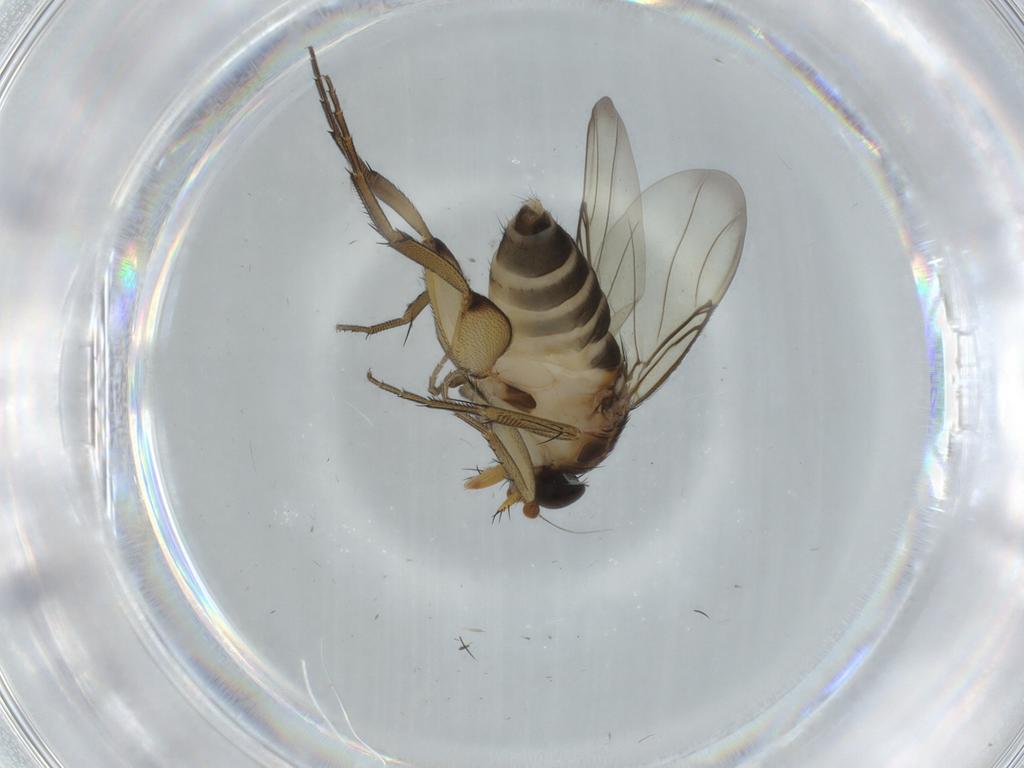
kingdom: Animalia
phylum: Arthropoda
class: Insecta
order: Diptera
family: Phoridae
